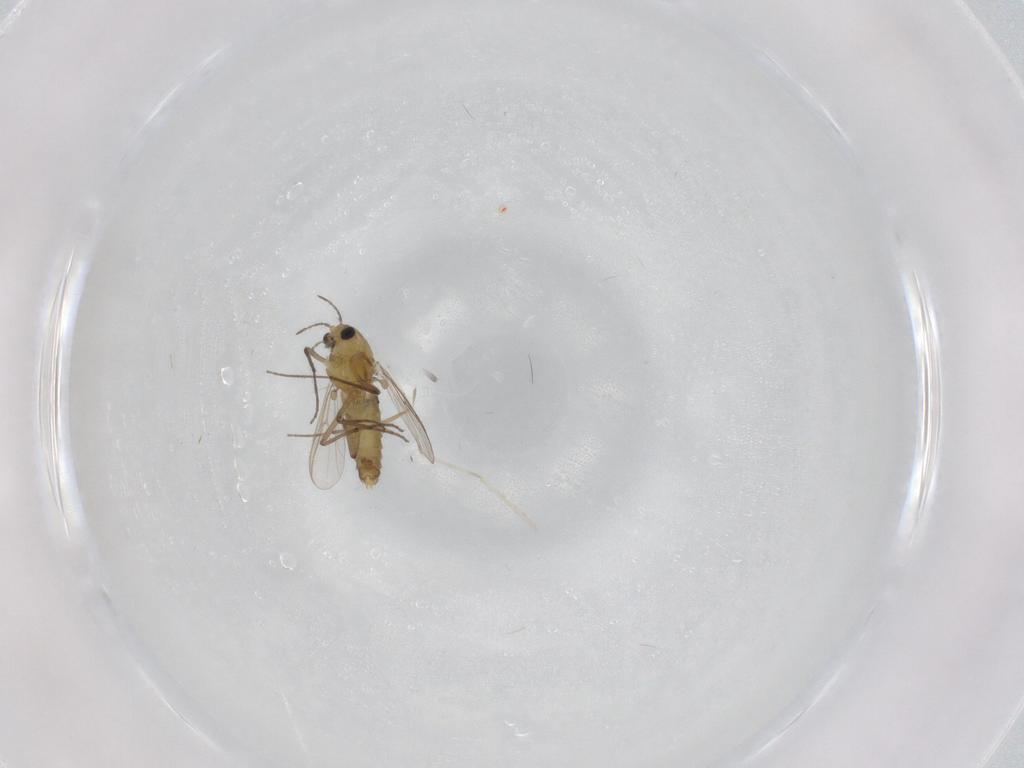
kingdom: Animalia
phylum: Arthropoda
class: Insecta
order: Diptera
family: Chironomidae
